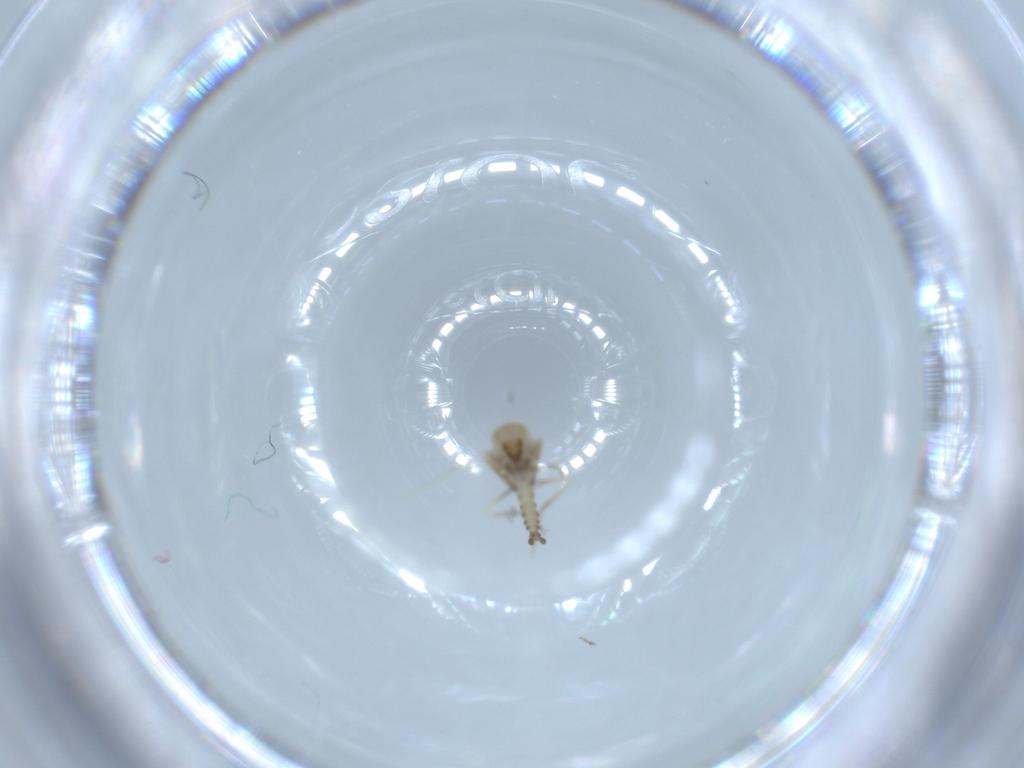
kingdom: Animalia
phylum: Arthropoda
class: Insecta
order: Diptera
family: Ceratopogonidae
